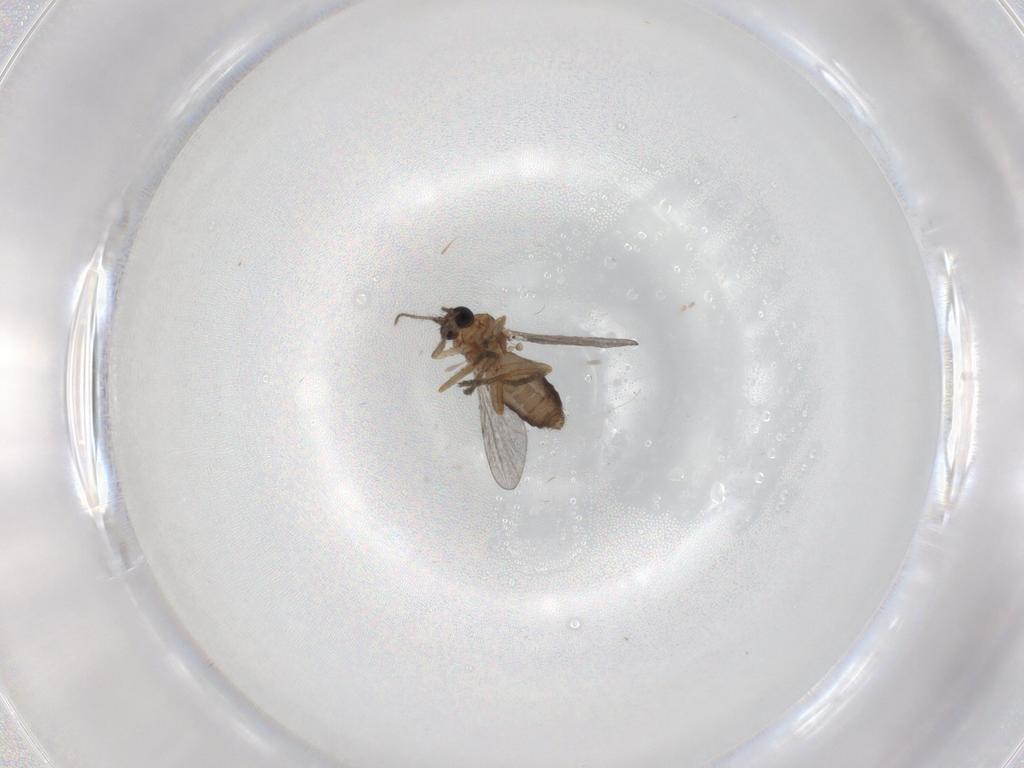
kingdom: Animalia
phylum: Arthropoda
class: Insecta
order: Diptera
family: Ceratopogonidae
